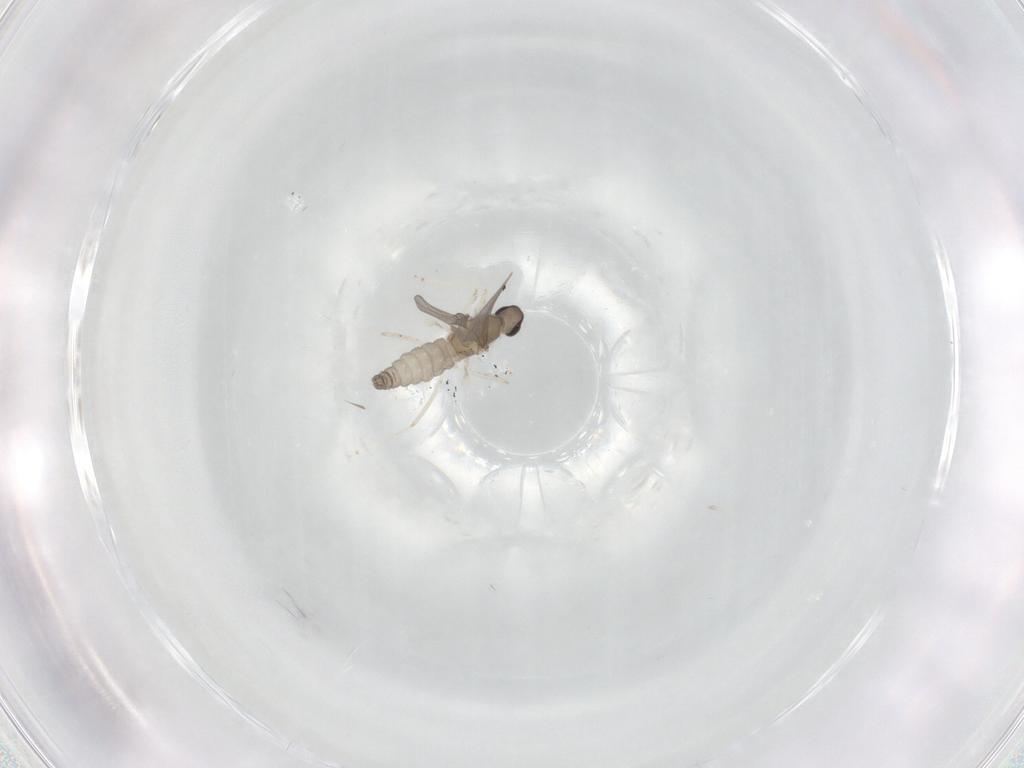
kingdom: Animalia
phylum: Arthropoda
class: Insecta
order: Diptera
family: Cecidomyiidae
